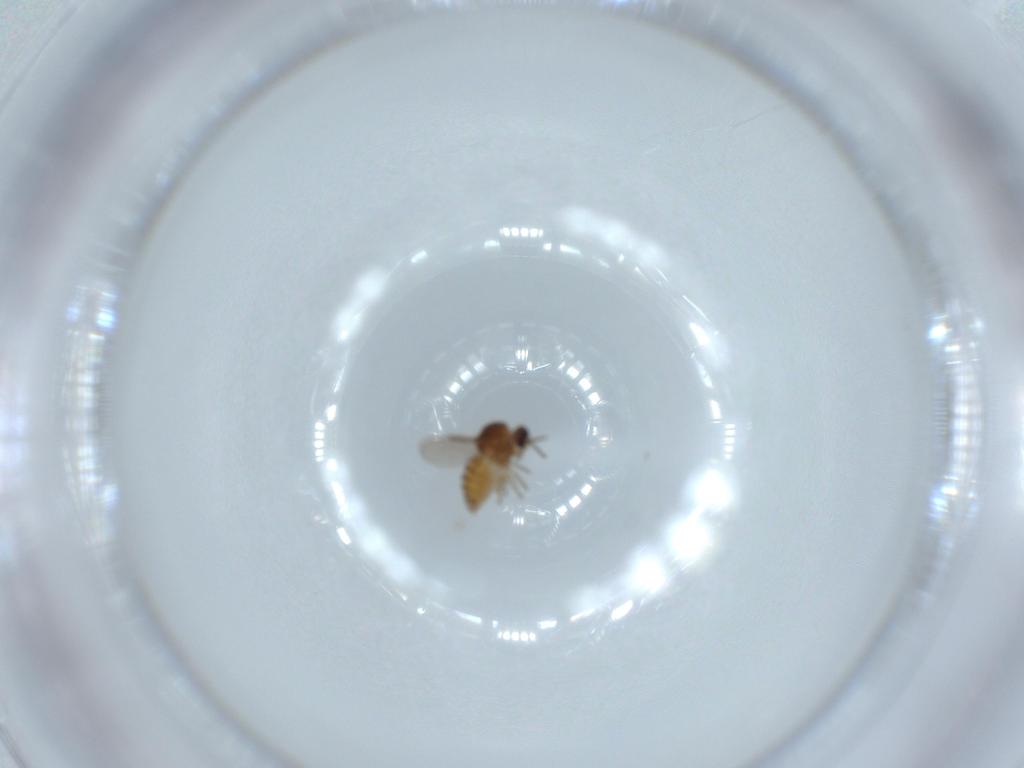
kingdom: Animalia
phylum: Arthropoda
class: Insecta
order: Diptera
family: Ceratopogonidae
